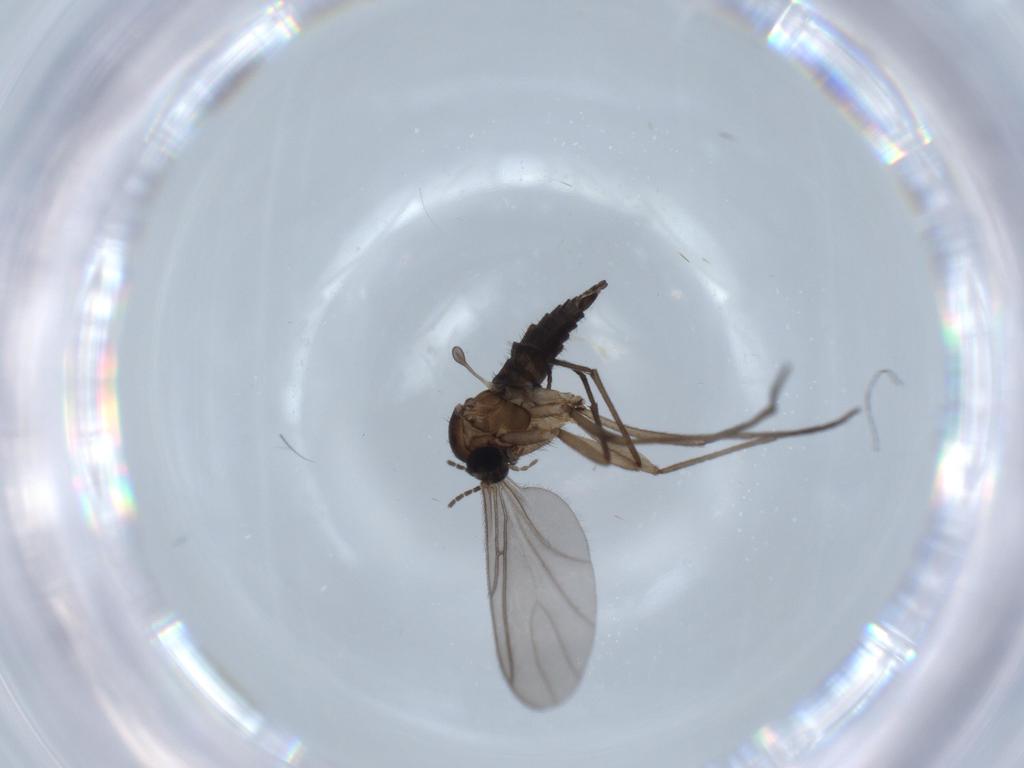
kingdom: Animalia
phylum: Arthropoda
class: Insecta
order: Diptera
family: Sciaridae
